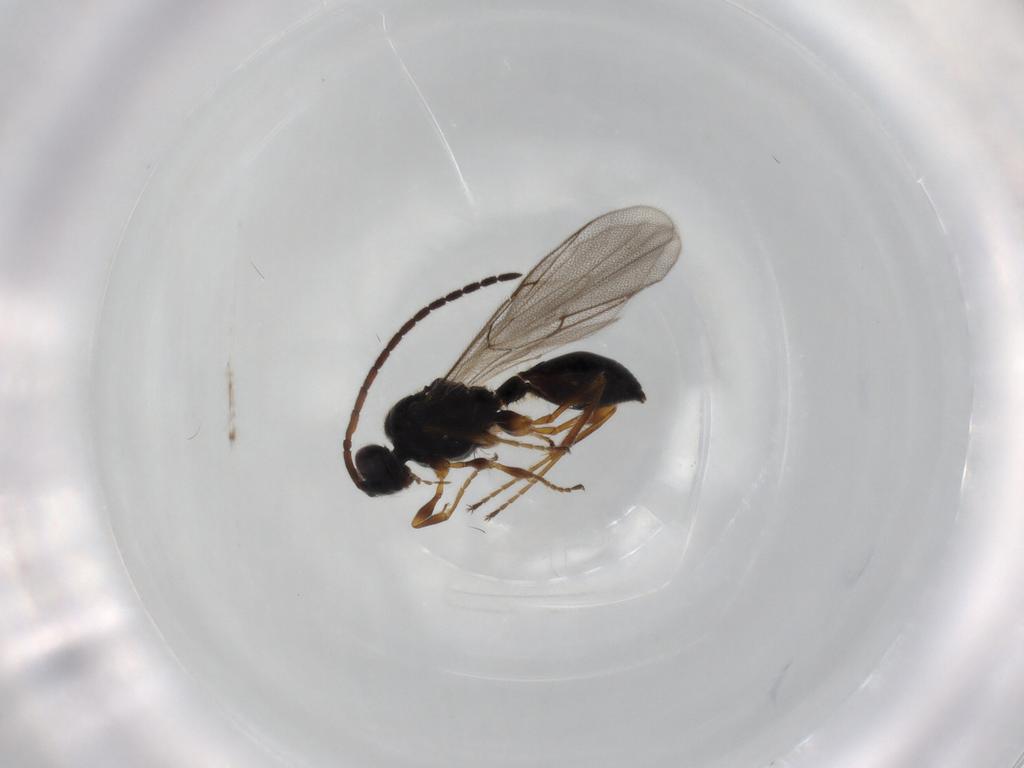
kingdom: Animalia
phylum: Arthropoda
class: Insecta
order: Hymenoptera
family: Diapriidae
